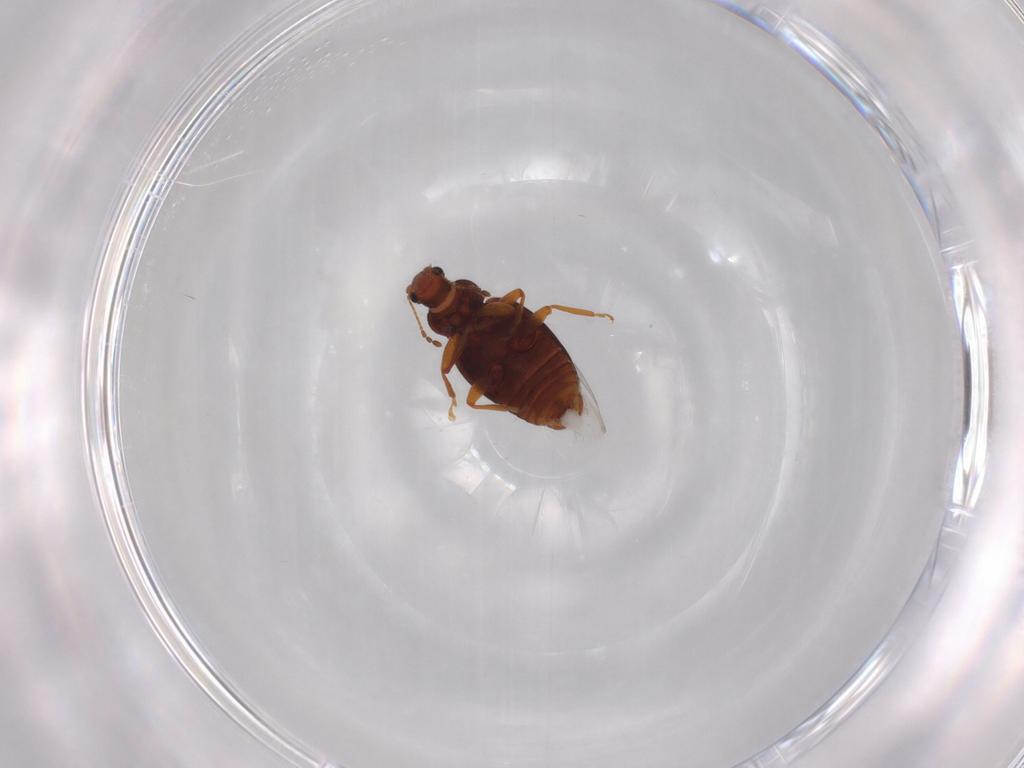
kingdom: Animalia
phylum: Arthropoda
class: Insecta
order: Coleoptera
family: Latridiidae
